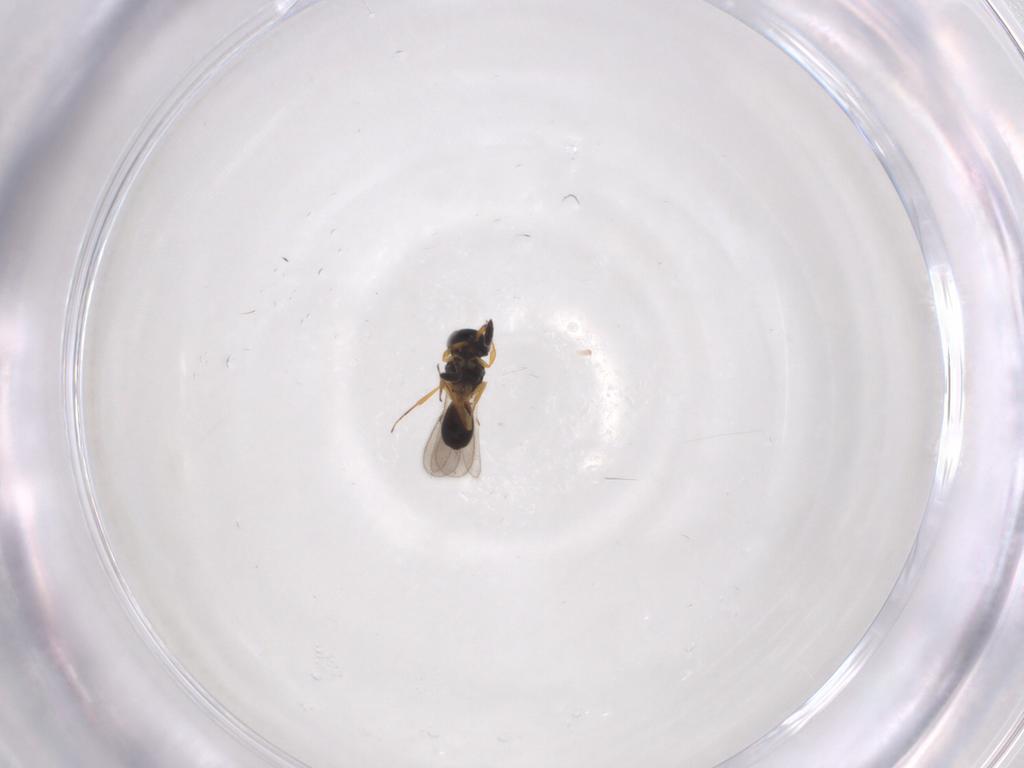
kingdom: Animalia
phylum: Arthropoda
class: Insecta
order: Hymenoptera
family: Scelionidae
